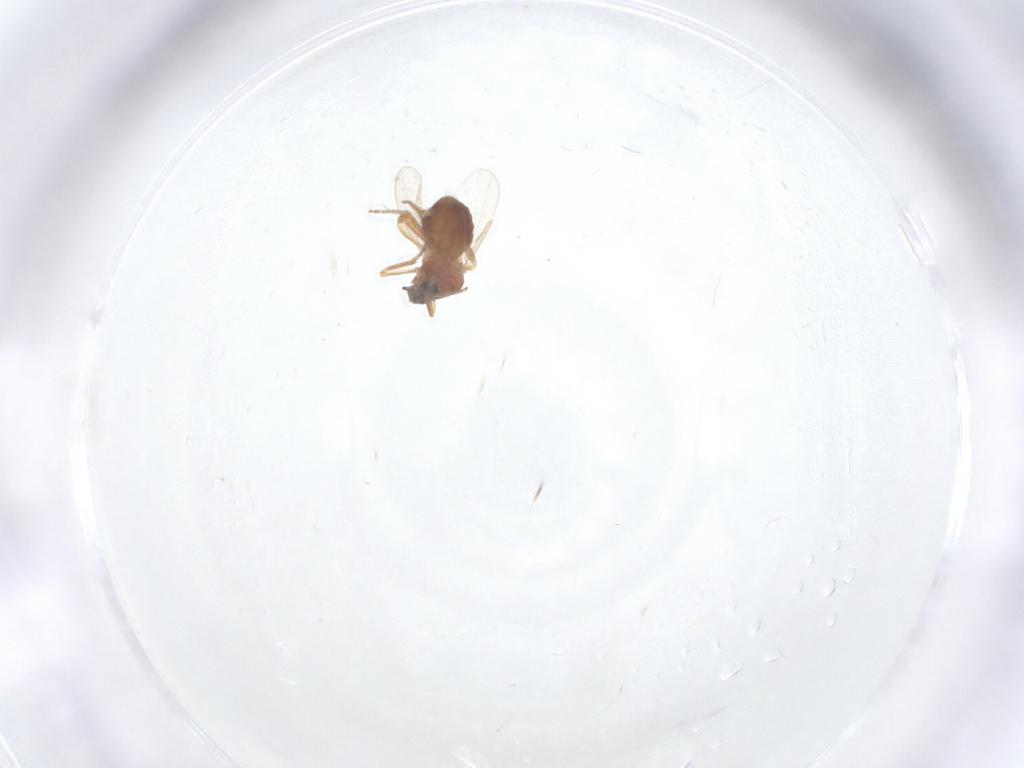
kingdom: Animalia
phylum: Arthropoda
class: Insecta
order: Diptera
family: Ceratopogonidae
